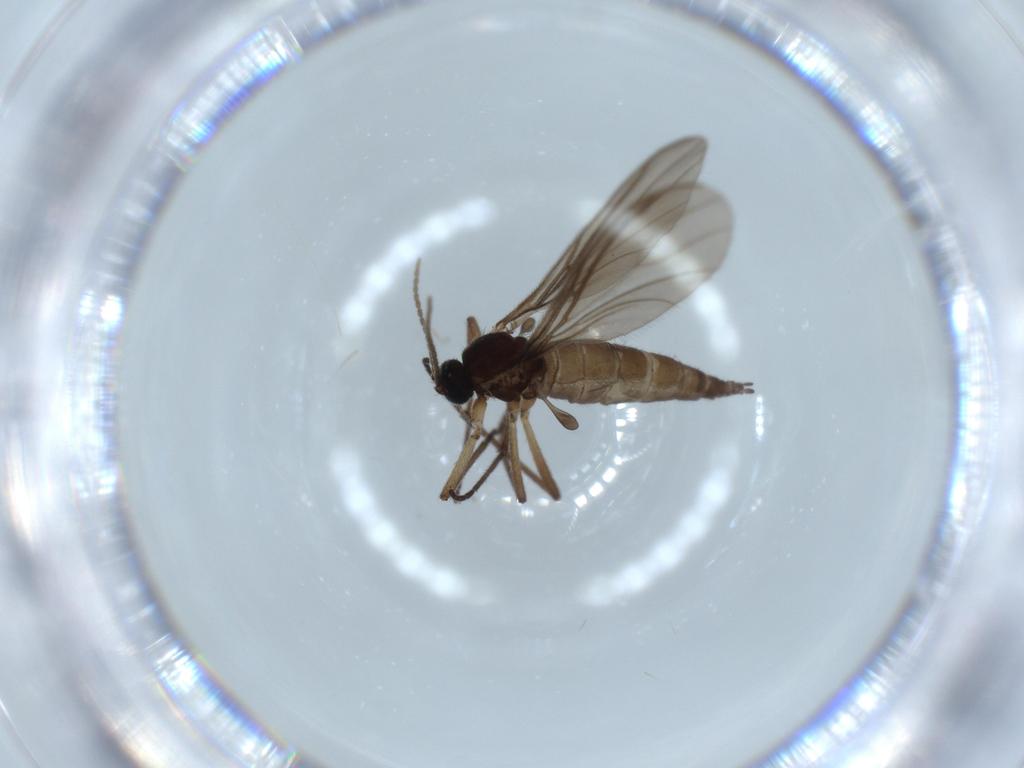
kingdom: Animalia
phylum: Arthropoda
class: Insecta
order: Diptera
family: Sciaridae
